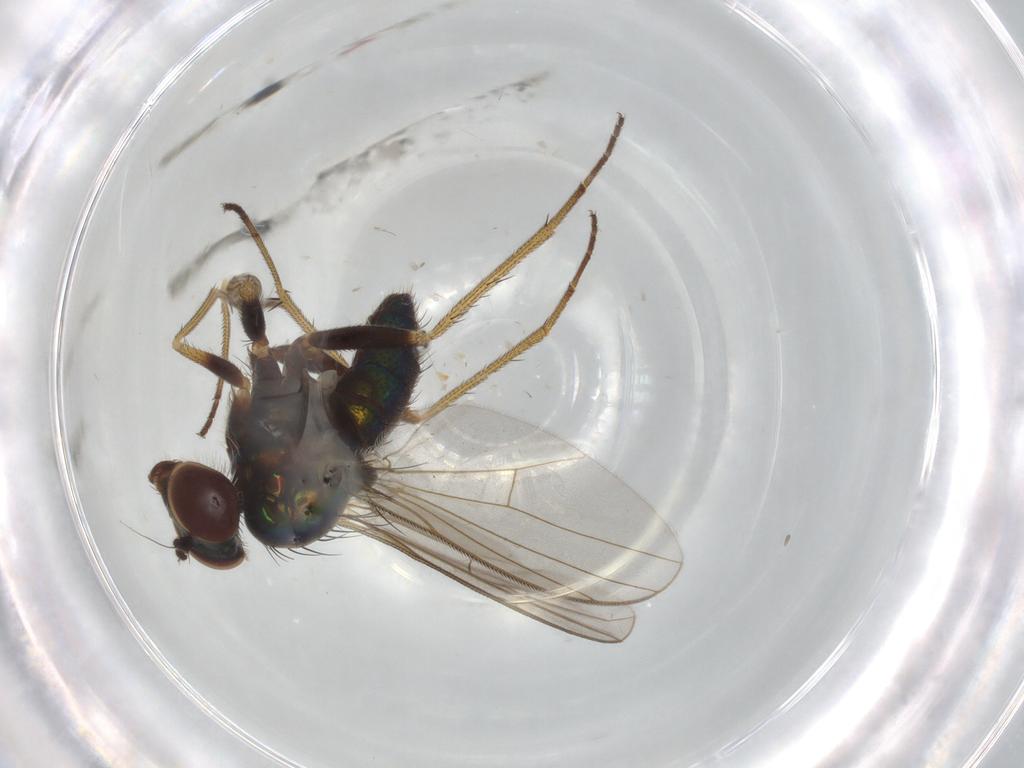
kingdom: Animalia
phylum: Arthropoda
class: Insecta
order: Diptera
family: Dolichopodidae
